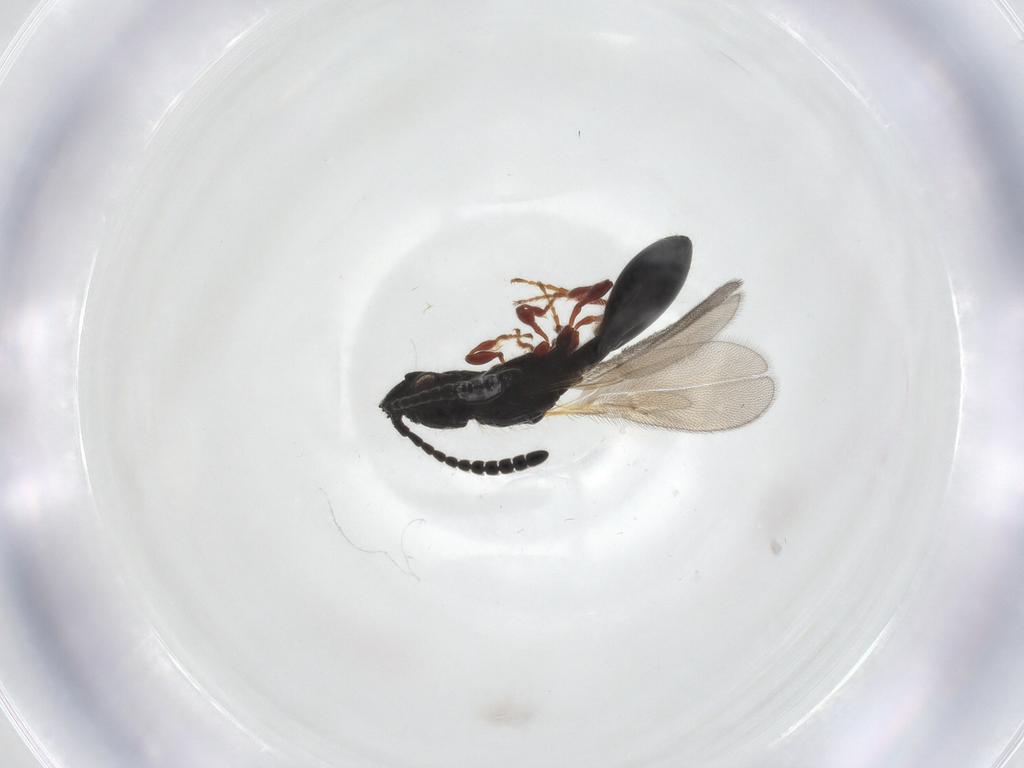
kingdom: Animalia
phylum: Arthropoda
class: Insecta
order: Hymenoptera
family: Diapriidae
